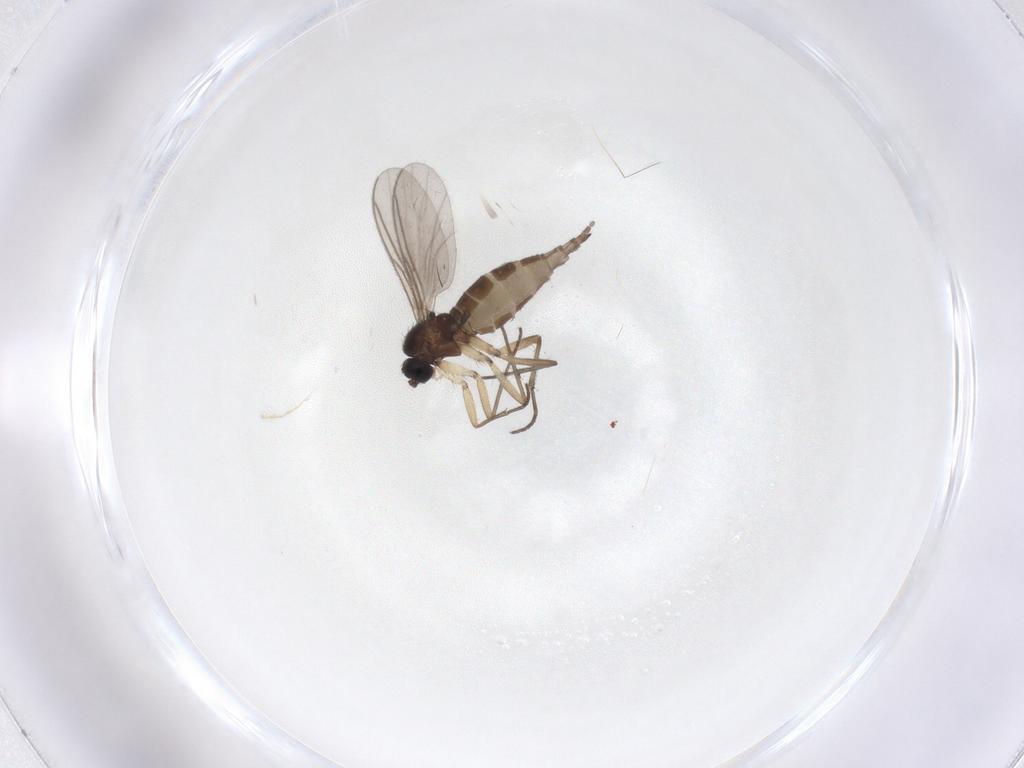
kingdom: Animalia
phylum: Arthropoda
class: Insecta
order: Diptera
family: Sciaridae
